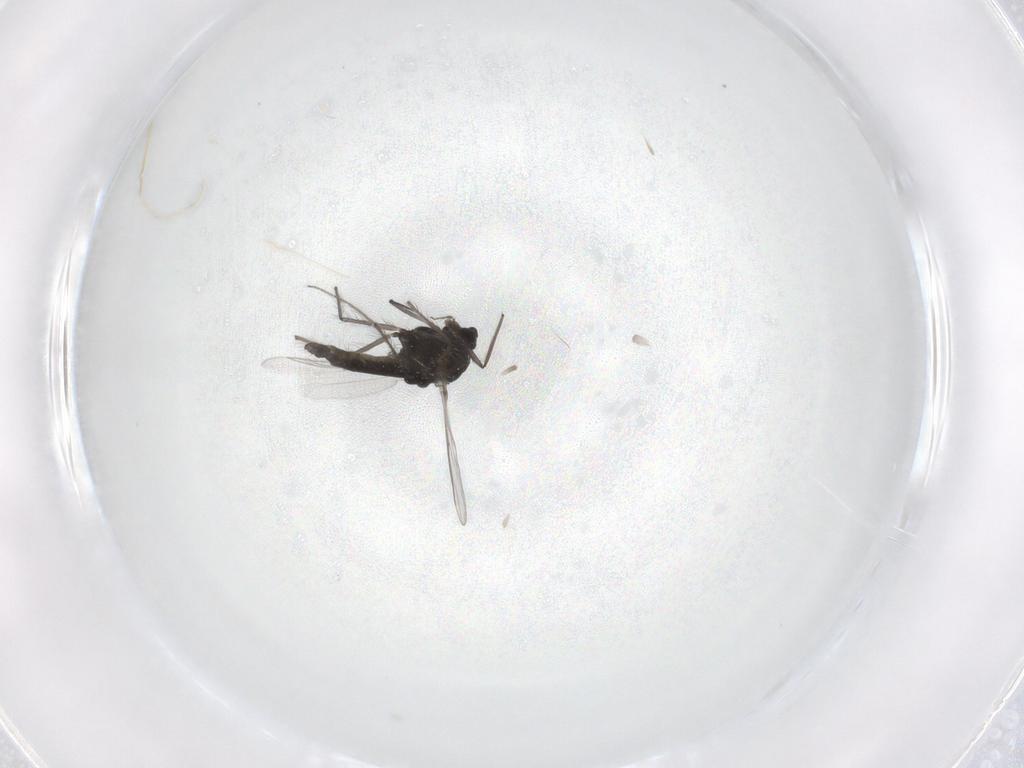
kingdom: Animalia
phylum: Arthropoda
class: Insecta
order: Diptera
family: Chironomidae
